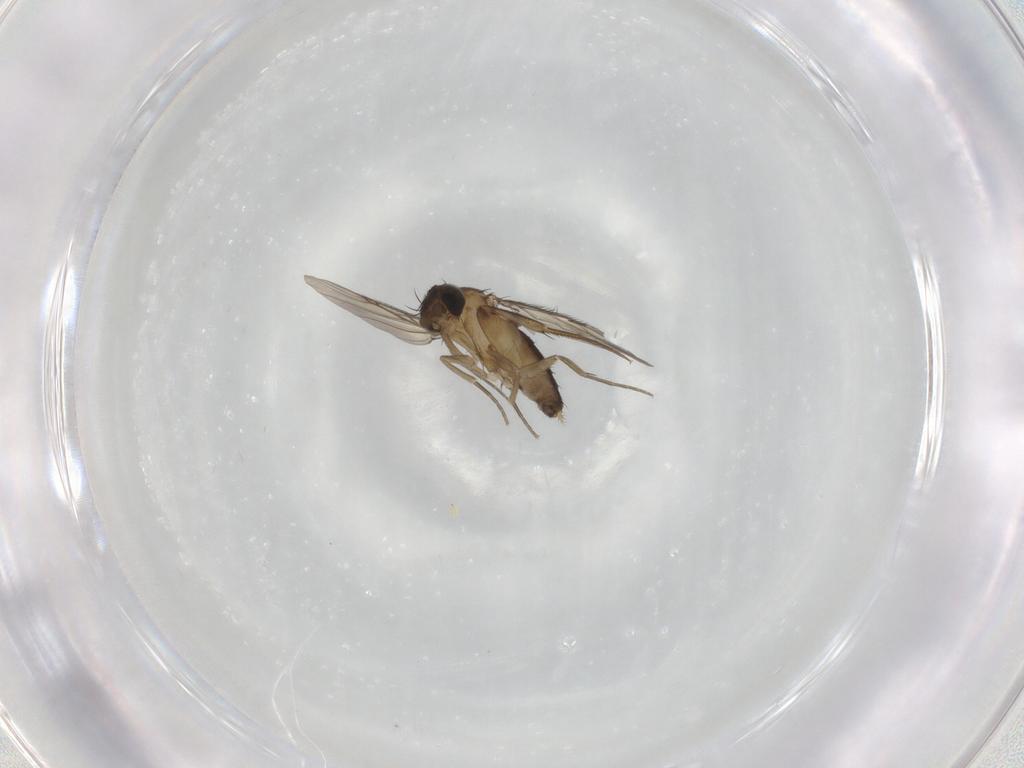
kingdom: Animalia
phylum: Arthropoda
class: Insecta
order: Diptera
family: Phoridae
